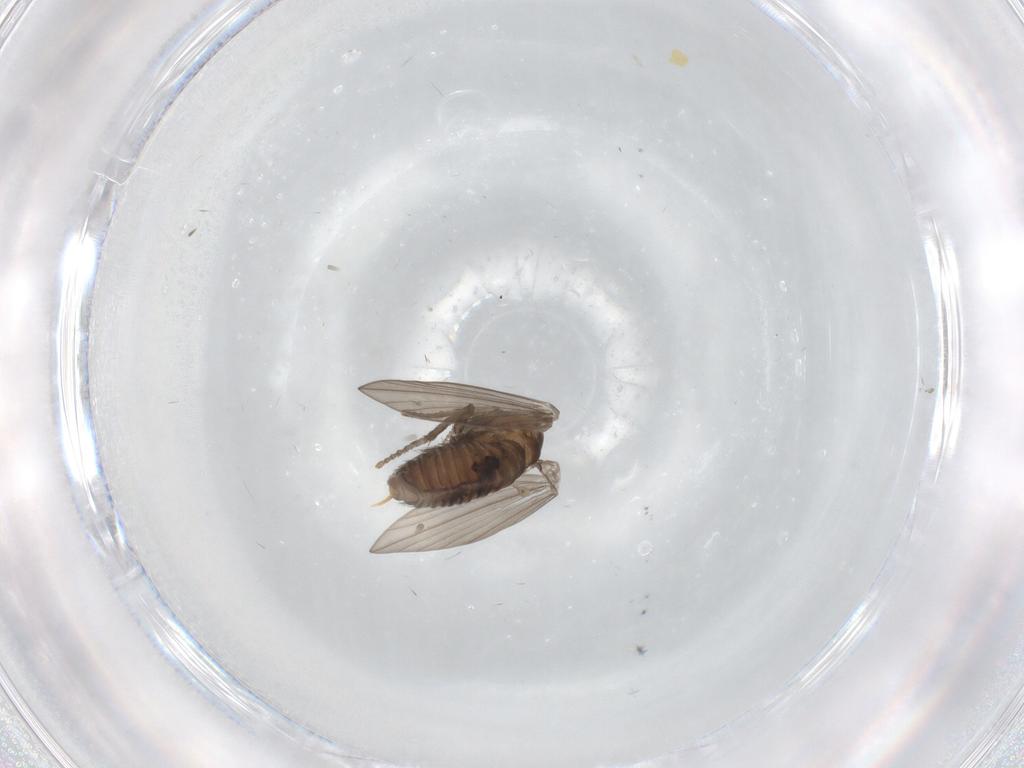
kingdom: Animalia
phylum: Arthropoda
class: Insecta
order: Diptera
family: Psychodidae
